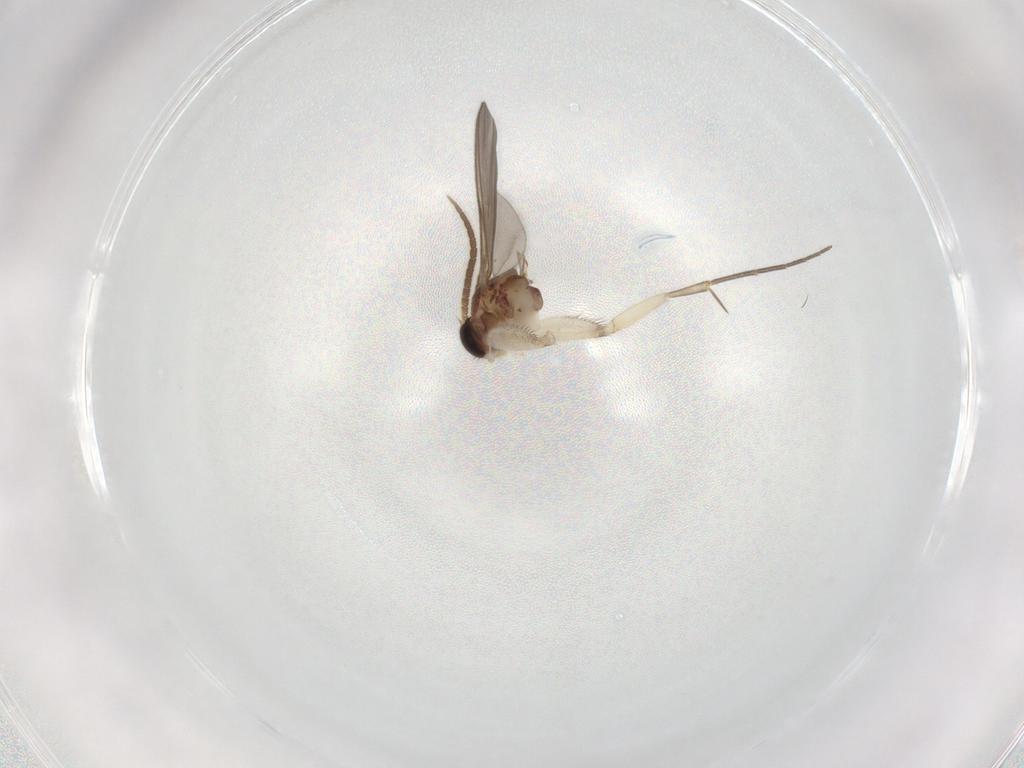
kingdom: Animalia
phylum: Arthropoda
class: Insecta
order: Diptera
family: Mycetophilidae
